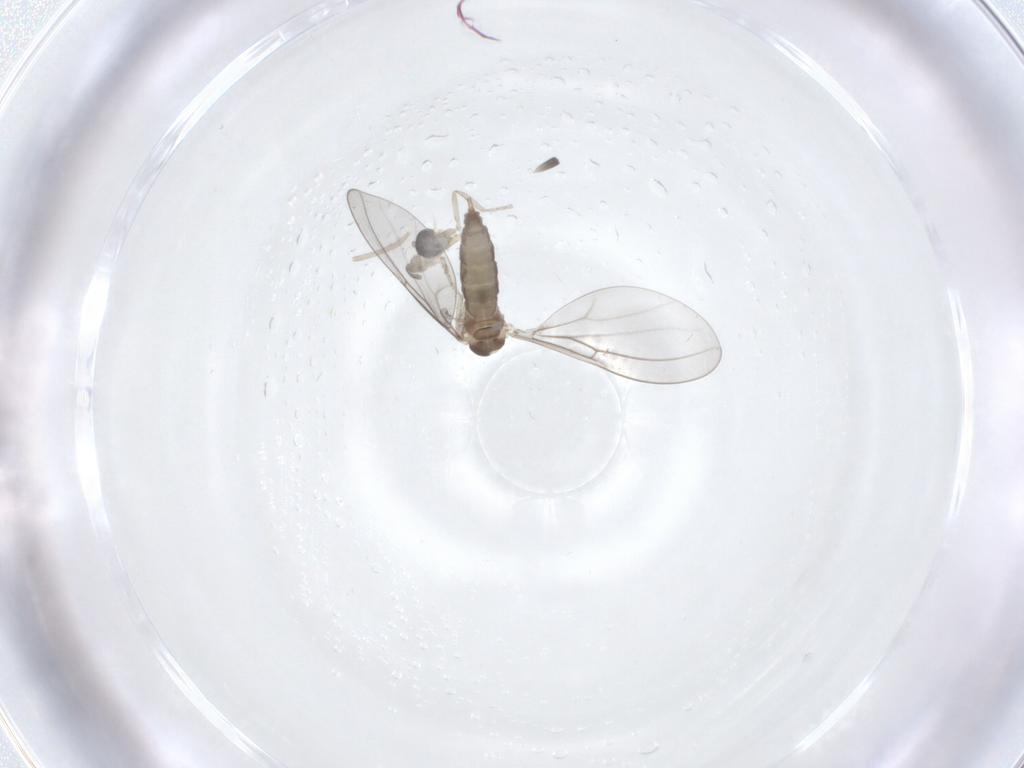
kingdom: Animalia
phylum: Arthropoda
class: Insecta
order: Diptera
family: Cecidomyiidae
